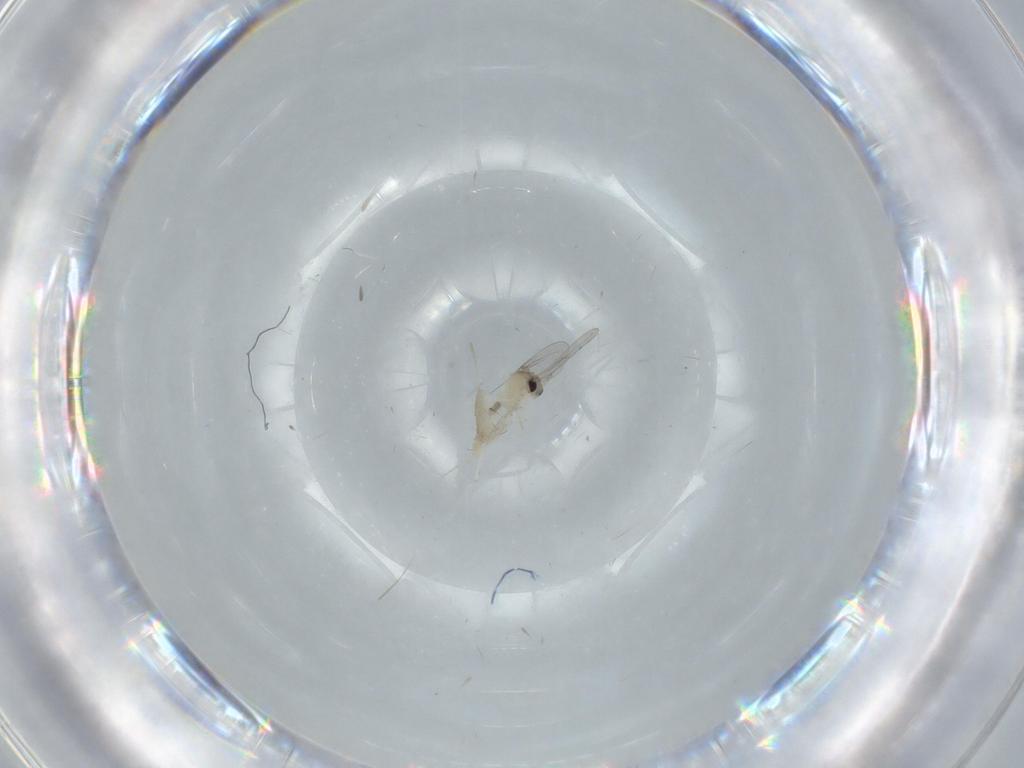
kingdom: Animalia
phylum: Arthropoda
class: Insecta
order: Diptera
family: Cecidomyiidae
